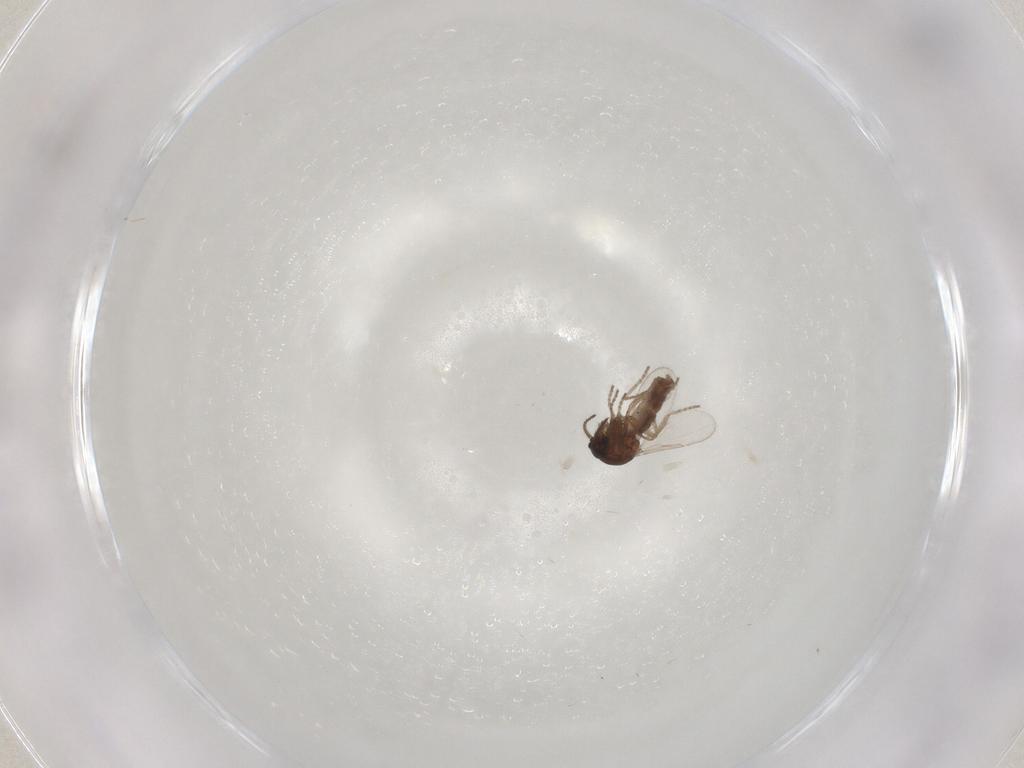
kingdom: Animalia
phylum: Arthropoda
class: Insecta
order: Diptera
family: Ceratopogonidae
